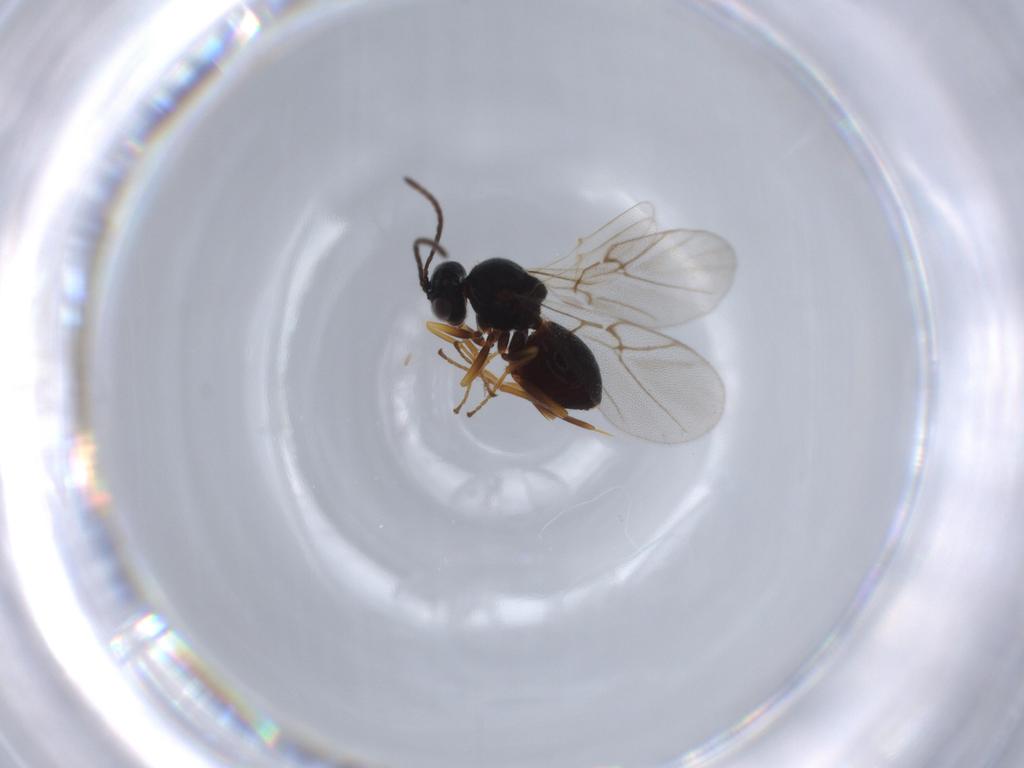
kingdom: Animalia
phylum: Arthropoda
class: Insecta
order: Hymenoptera
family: Cynipidae
